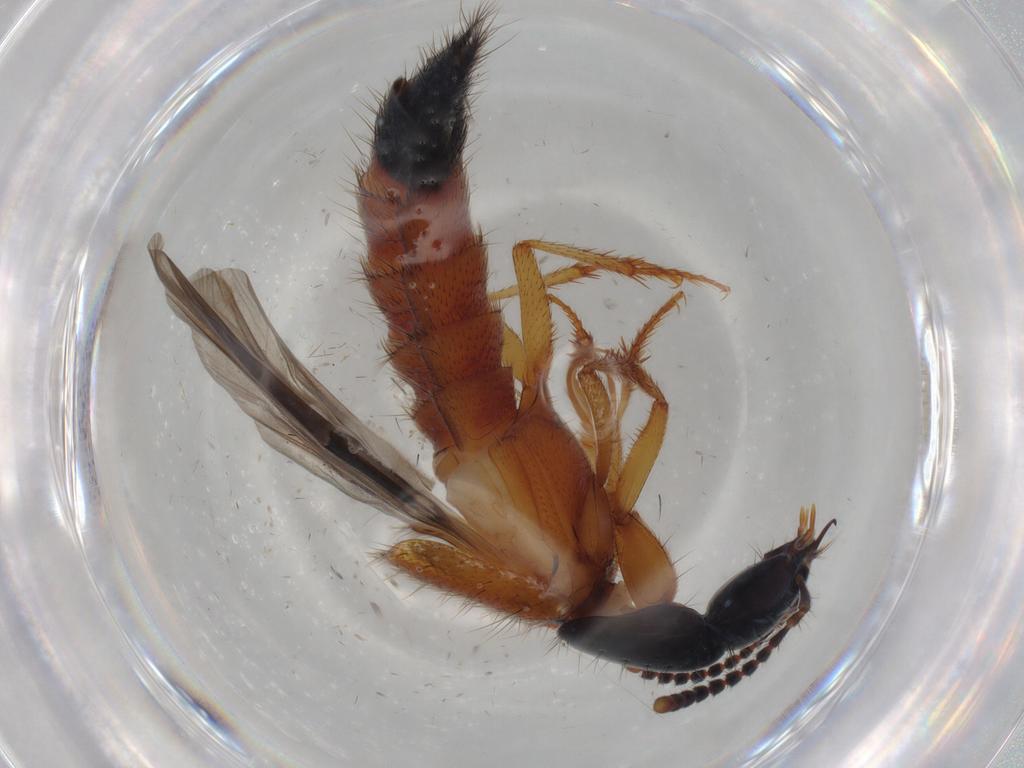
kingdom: Animalia
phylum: Arthropoda
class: Insecta
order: Coleoptera
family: Staphylinidae
